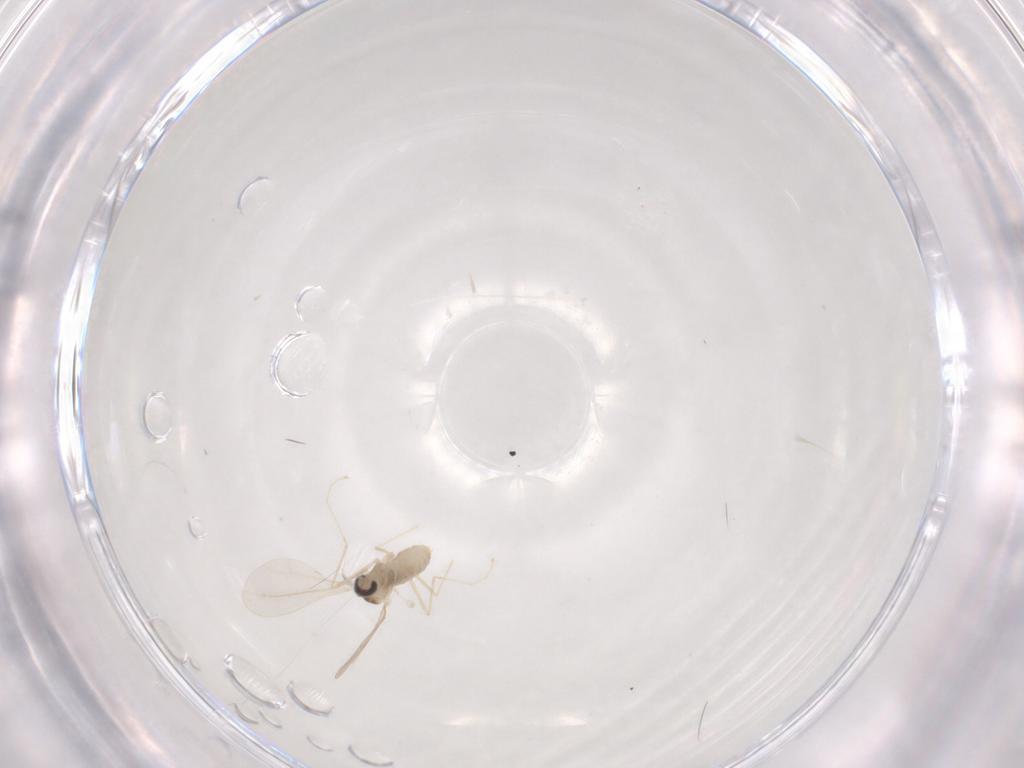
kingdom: Animalia
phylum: Arthropoda
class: Insecta
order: Diptera
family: Cecidomyiidae
